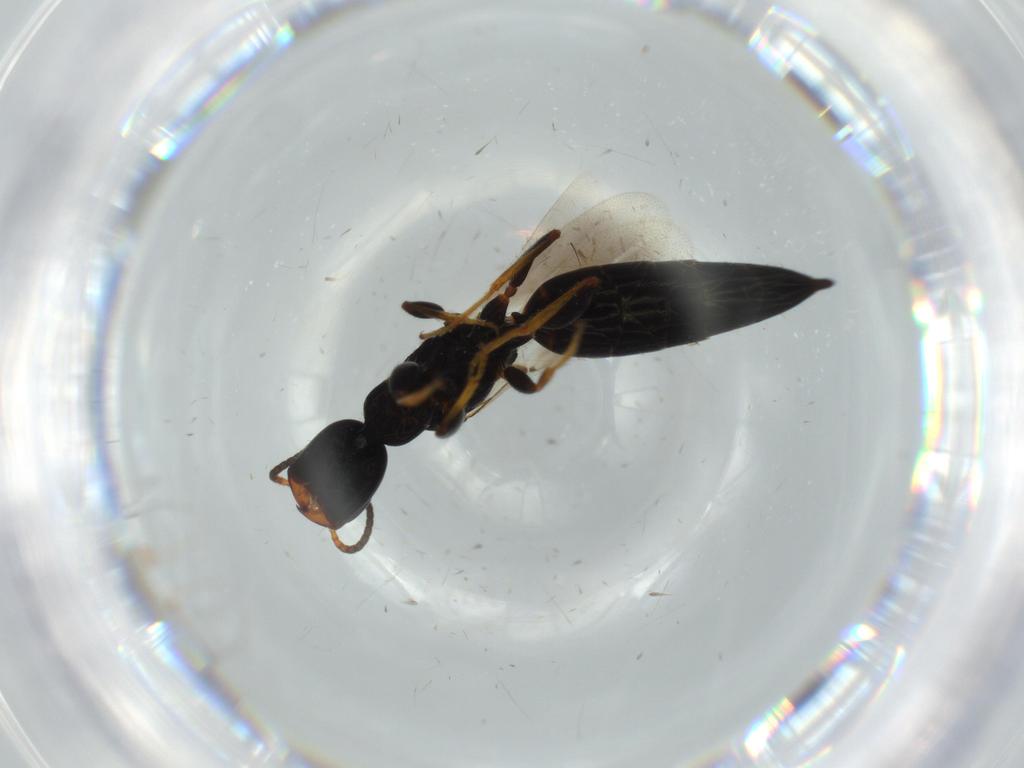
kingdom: Animalia
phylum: Arthropoda
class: Insecta
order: Hymenoptera
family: Bethylidae
